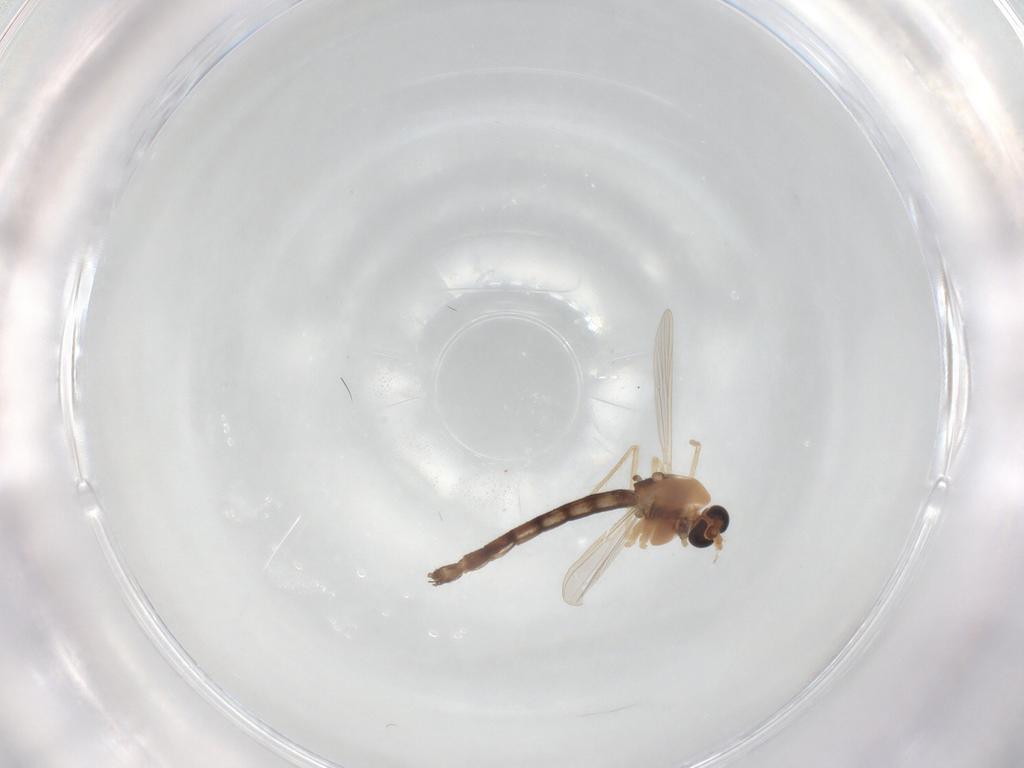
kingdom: Animalia
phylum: Arthropoda
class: Insecta
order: Diptera
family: Chironomidae
